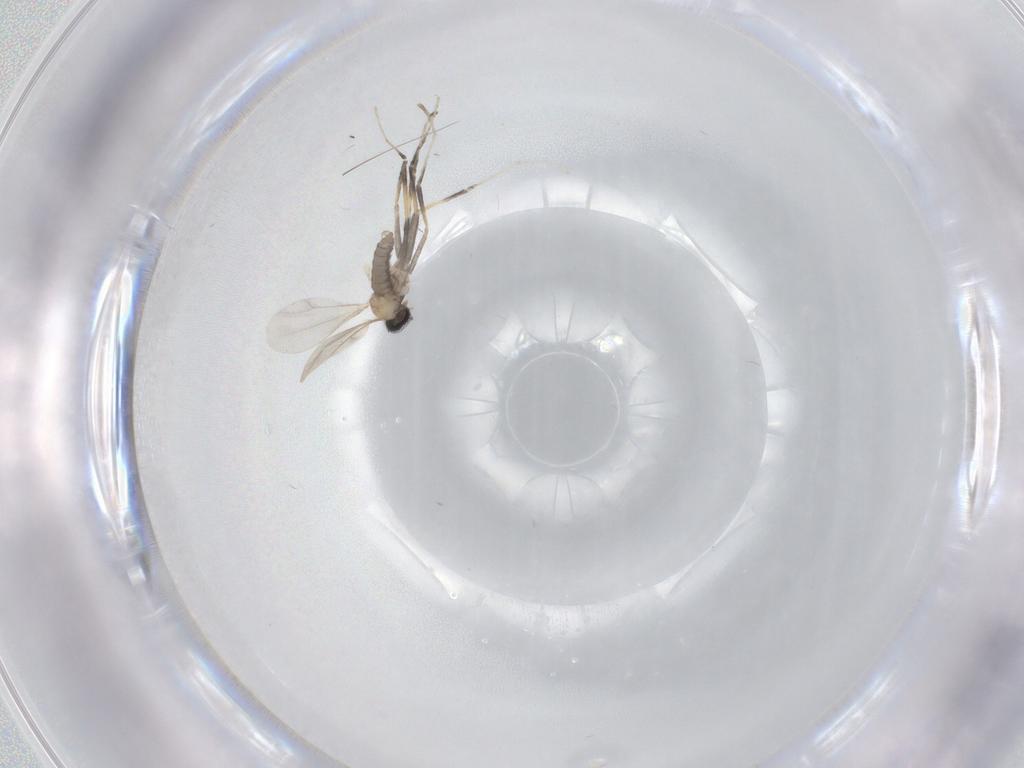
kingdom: Animalia
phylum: Arthropoda
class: Insecta
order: Diptera
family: Cecidomyiidae
